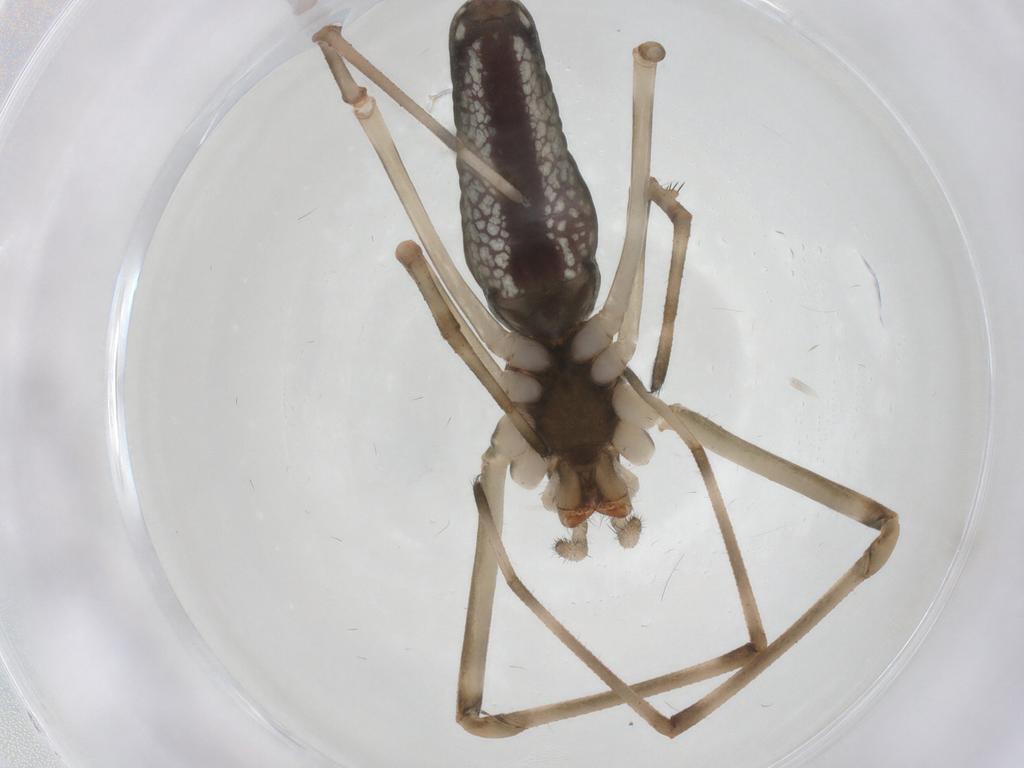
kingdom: Animalia
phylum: Arthropoda
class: Arachnida
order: Araneae
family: Tetragnathidae
